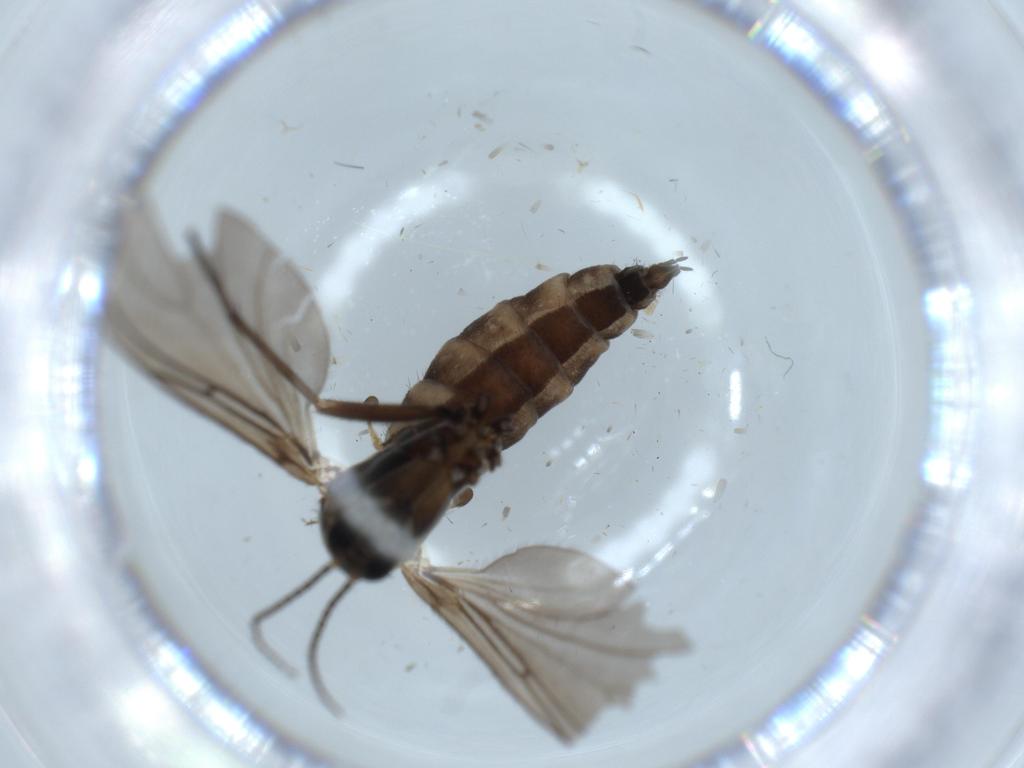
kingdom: Animalia
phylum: Arthropoda
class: Insecta
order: Diptera
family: Sciaridae
